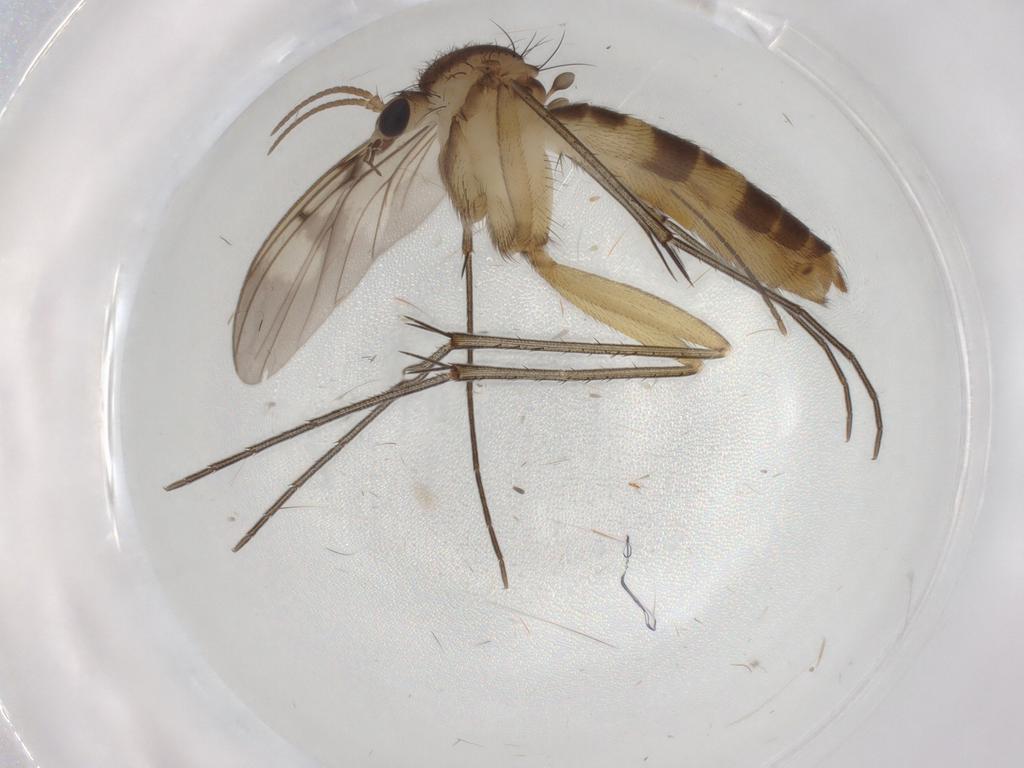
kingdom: Animalia
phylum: Arthropoda
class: Insecta
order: Diptera
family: Mycetophilidae
